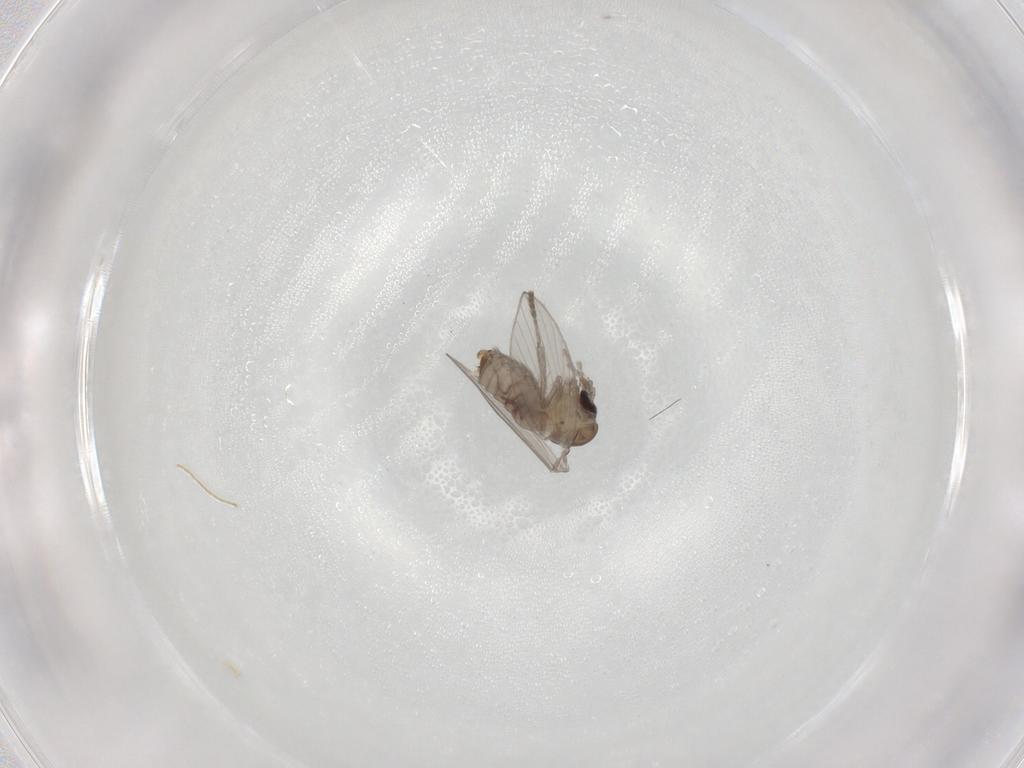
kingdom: Animalia
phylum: Arthropoda
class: Insecta
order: Diptera
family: Psychodidae
